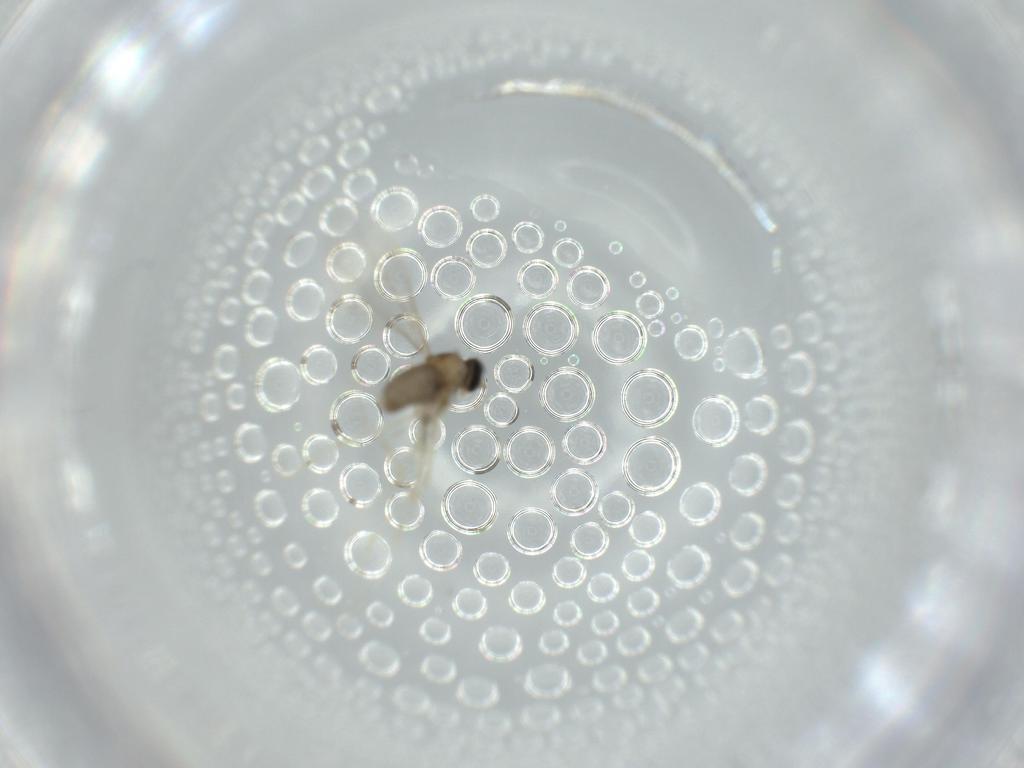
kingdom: Animalia
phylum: Arthropoda
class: Insecta
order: Diptera
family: Cecidomyiidae
